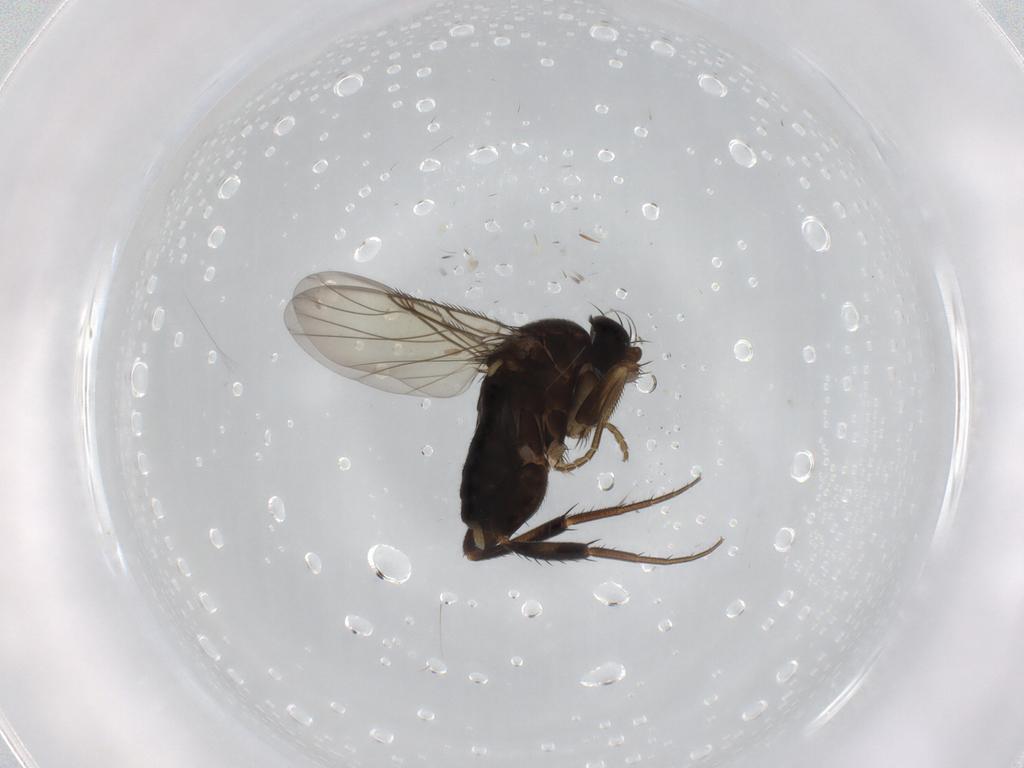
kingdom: Animalia
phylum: Arthropoda
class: Insecta
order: Diptera
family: Phoridae
